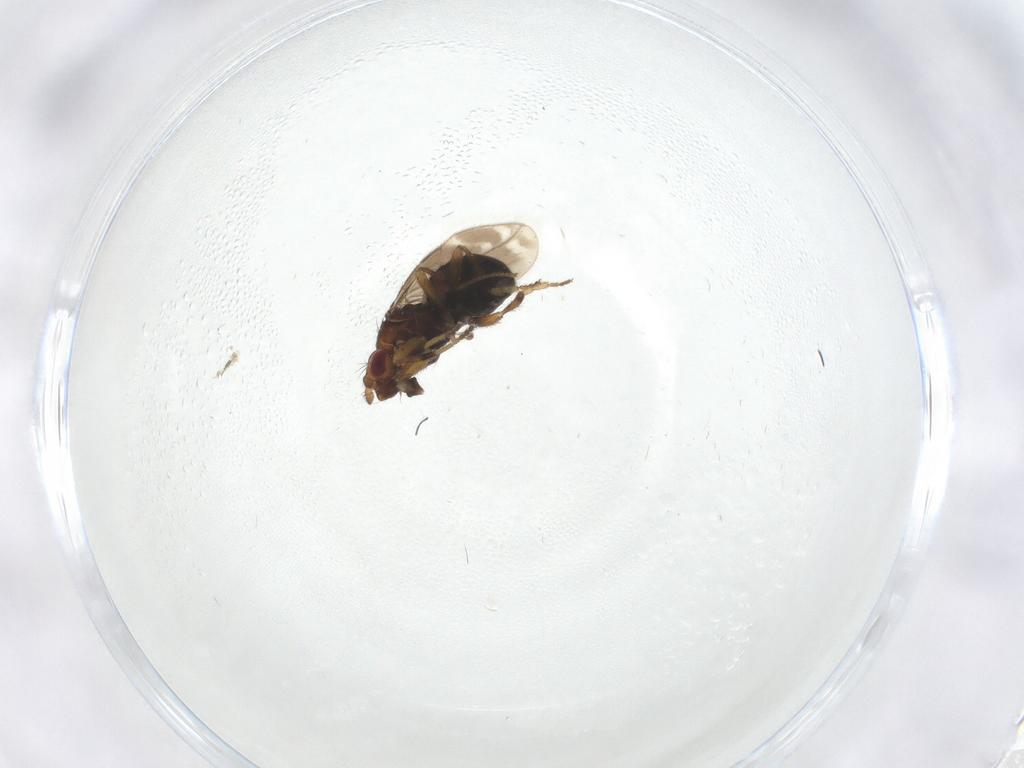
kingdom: Animalia
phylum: Arthropoda
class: Insecta
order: Diptera
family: Sphaeroceridae
